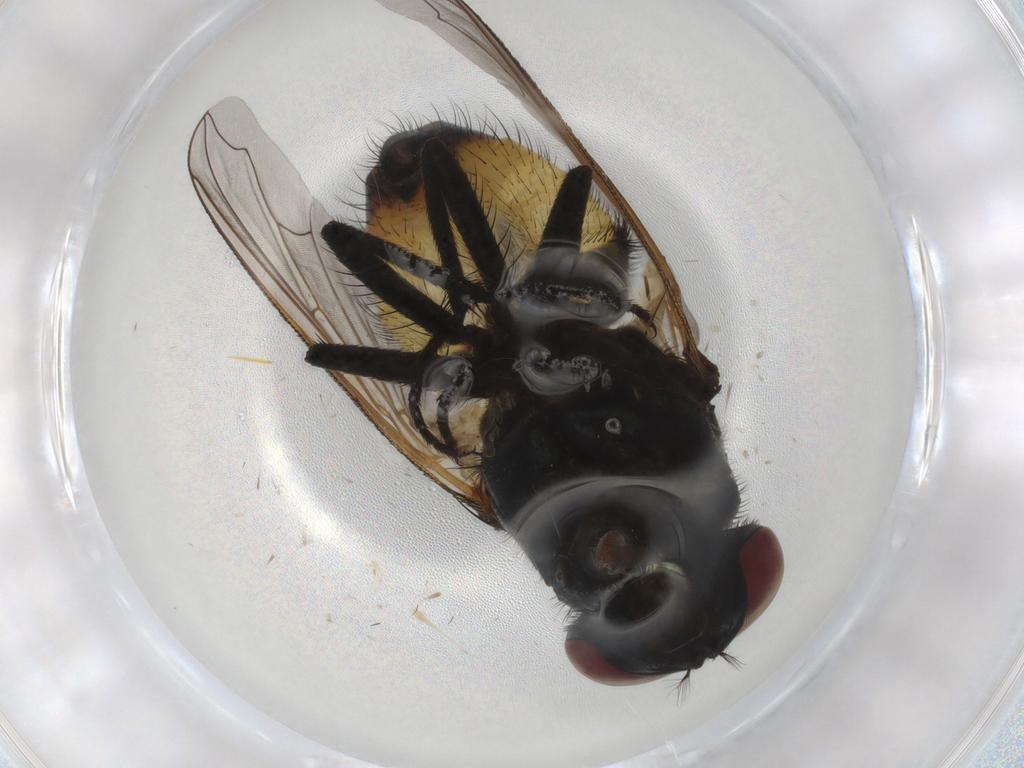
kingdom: Animalia
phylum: Arthropoda
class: Insecta
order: Diptera
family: Muscidae
